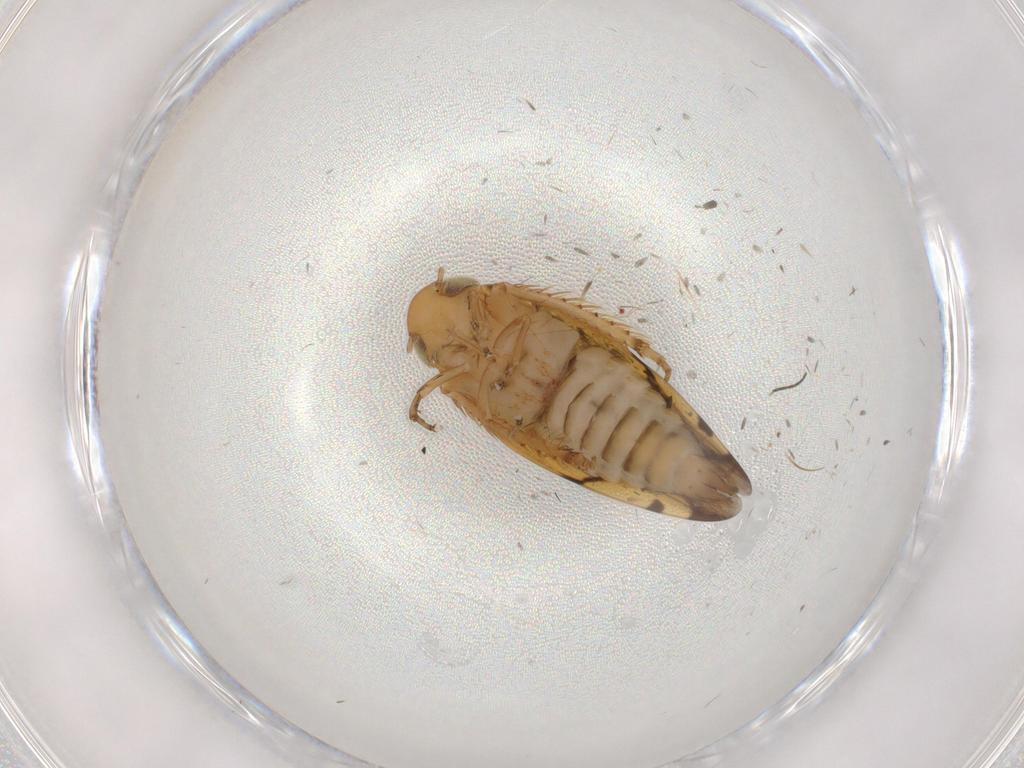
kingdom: Animalia
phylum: Arthropoda
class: Insecta
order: Hemiptera
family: Cicadellidae
